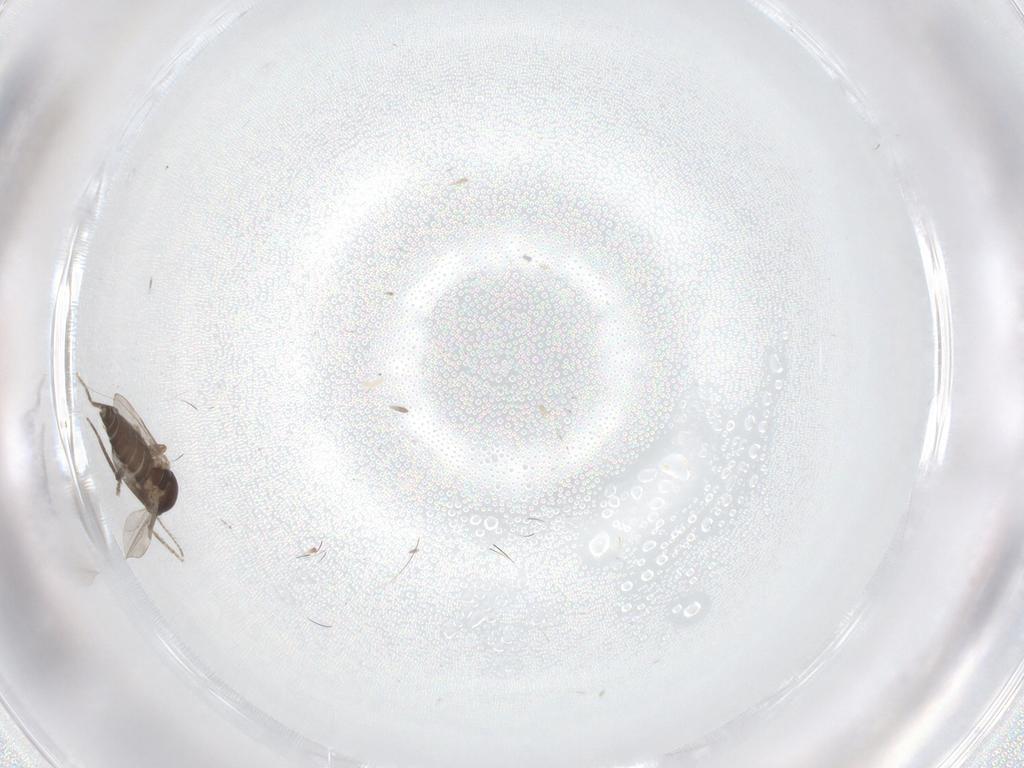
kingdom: Animalia
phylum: Arthropoda
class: Insecta
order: Diptera
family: Ceratopogonidae
